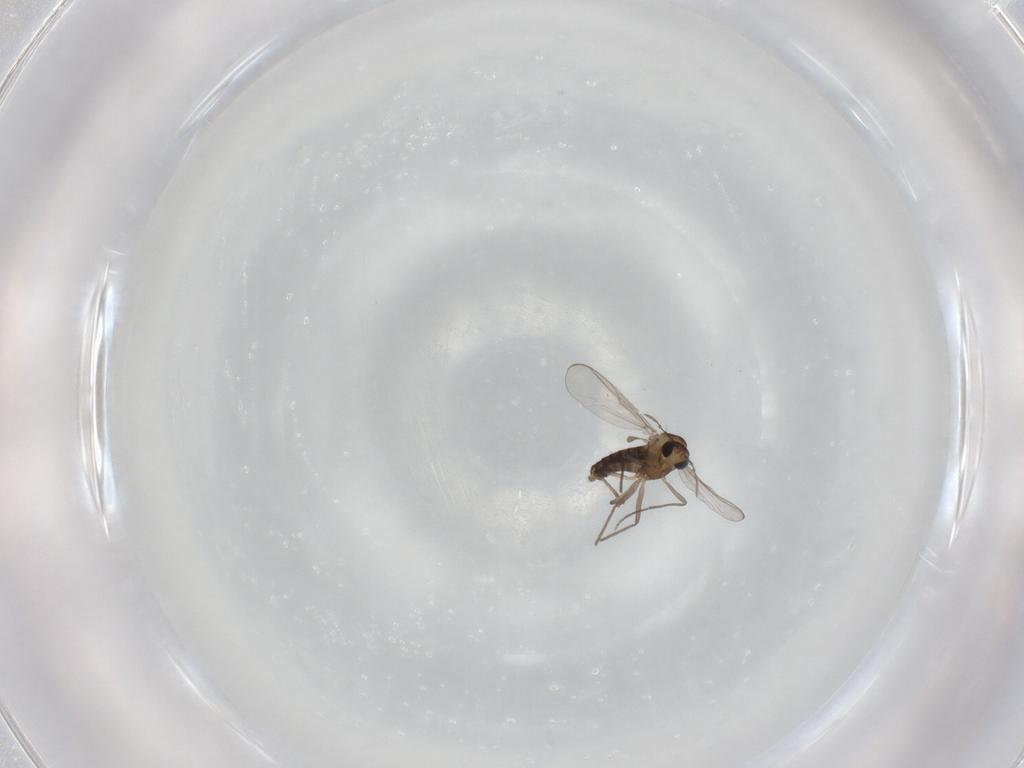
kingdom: Animalia
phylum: Arthropoda
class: Insecta
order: Diptera
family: Chironomidae
